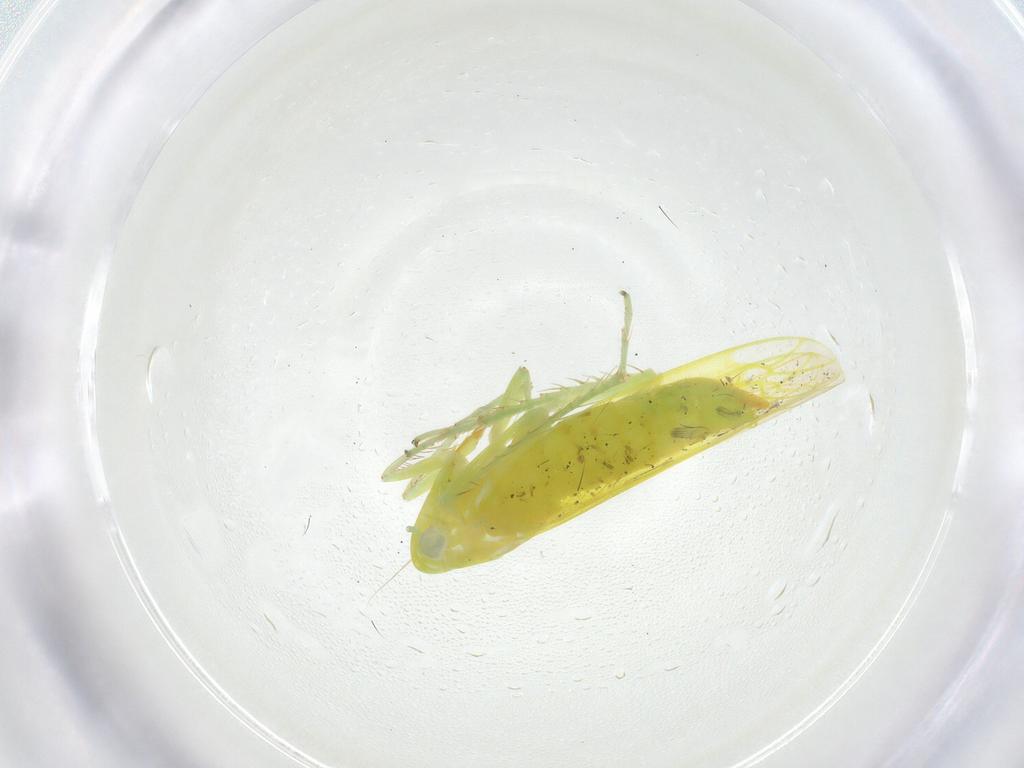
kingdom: Animalia
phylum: Arthropoda
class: Insecta
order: Hemiptera
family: Cicadellidae
